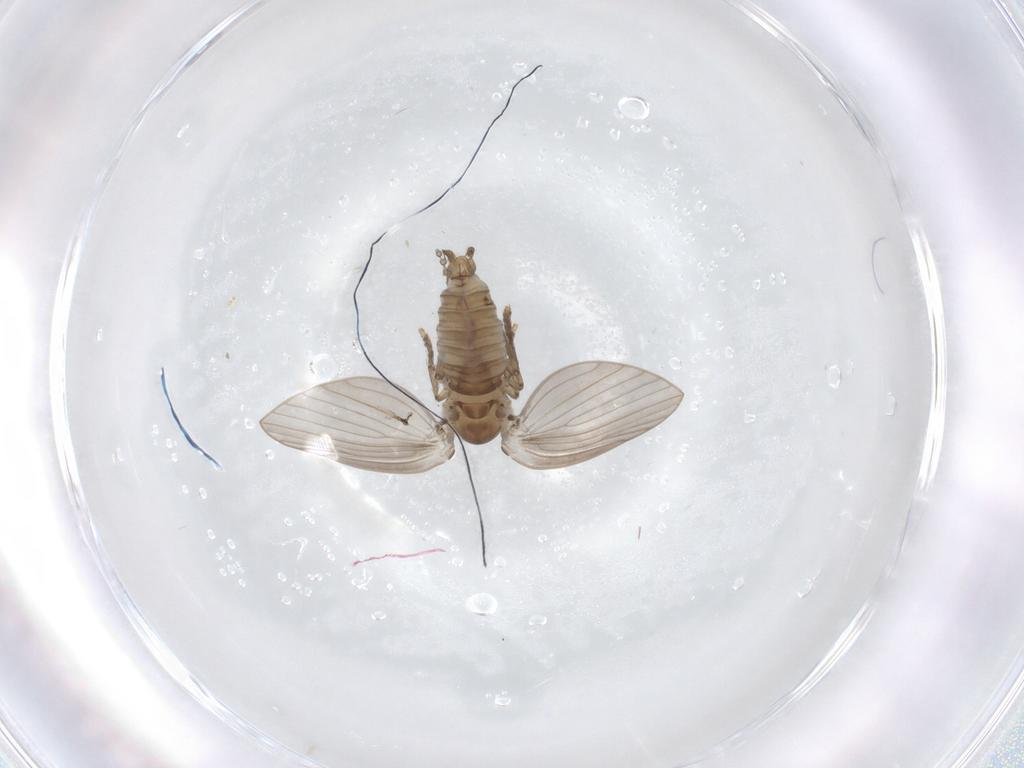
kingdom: Animalia
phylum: Arthropoda
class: Insecta
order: Diptera
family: Psychodidae
